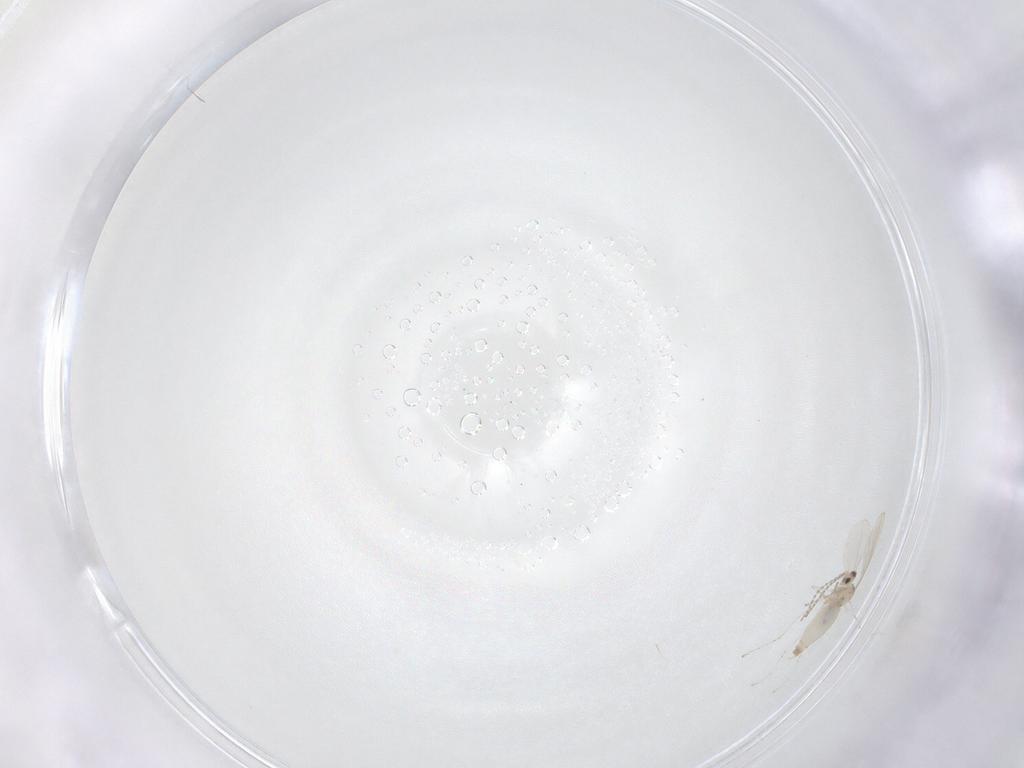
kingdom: Animalia
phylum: Arthropoda
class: Insecta
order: Diptera
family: Cecidomyiidae
